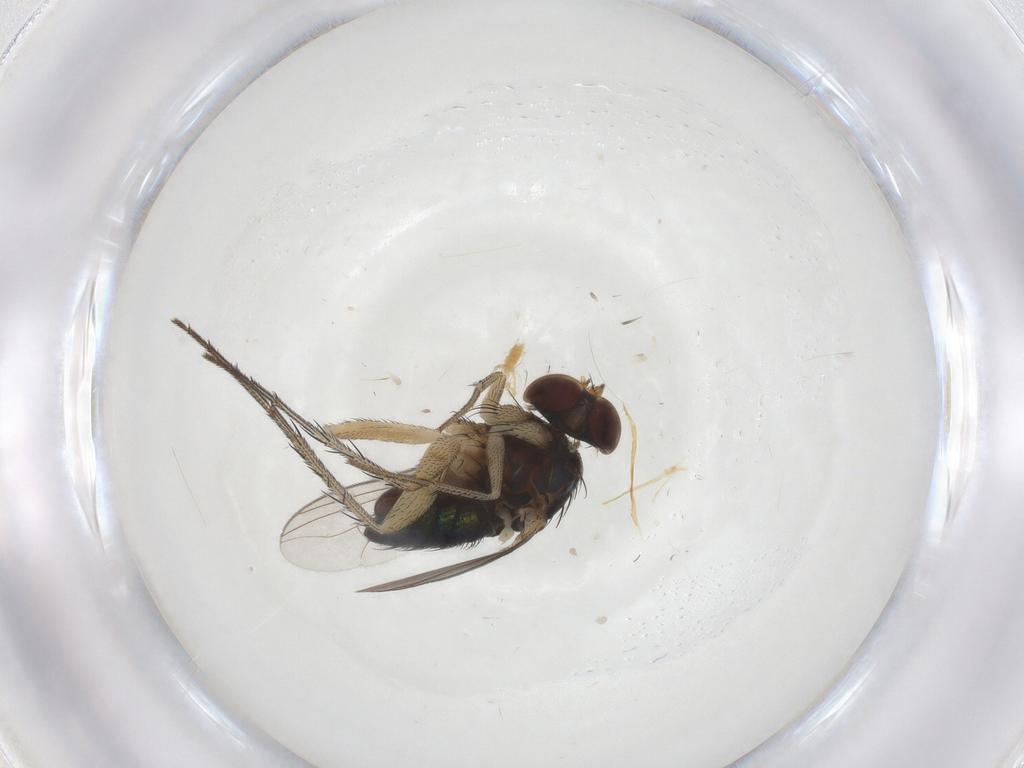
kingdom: Animalia
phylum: Arthropoda
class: Insecta
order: Diptera
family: Dolichopodidae
